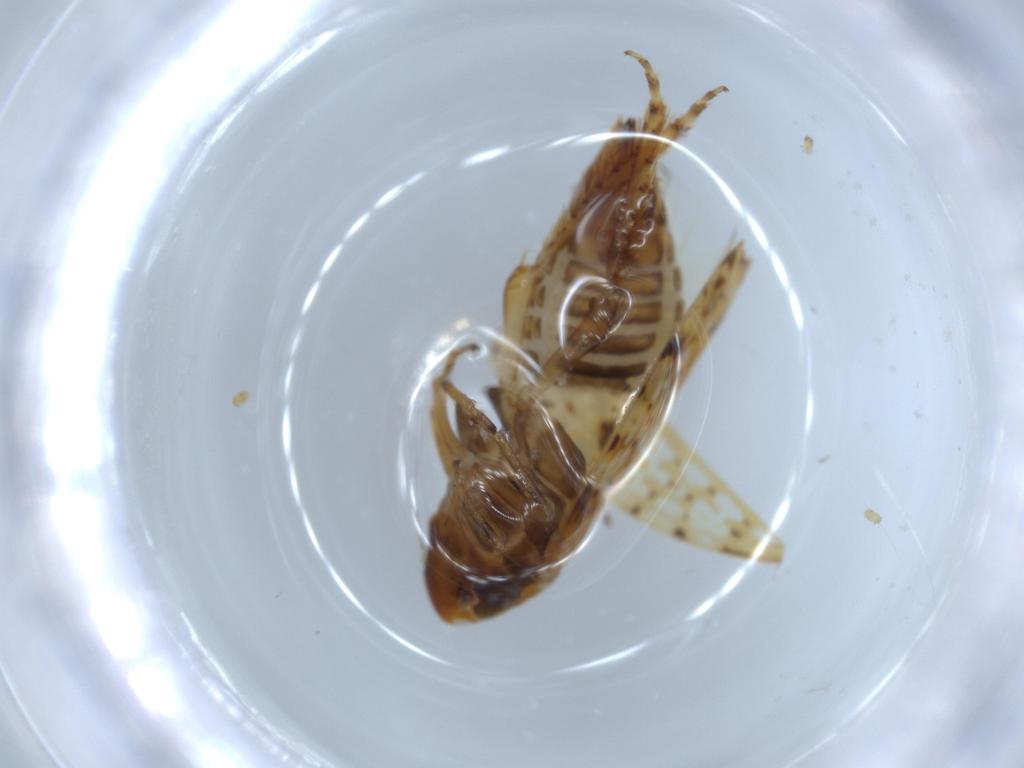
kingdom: Animalia
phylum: Arthropoda
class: Insecta
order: Hemiptera
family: Cicadellidae
